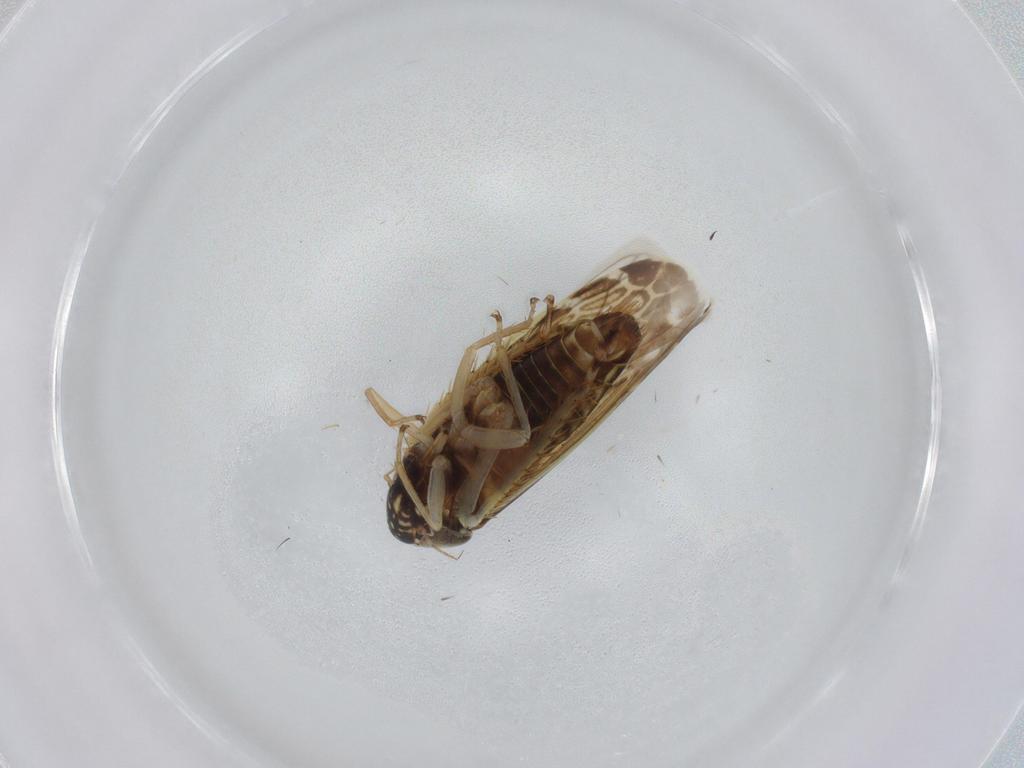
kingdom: Animalia
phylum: Arthropoda
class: Insecta
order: Hemiptera
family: Cicadellidae
